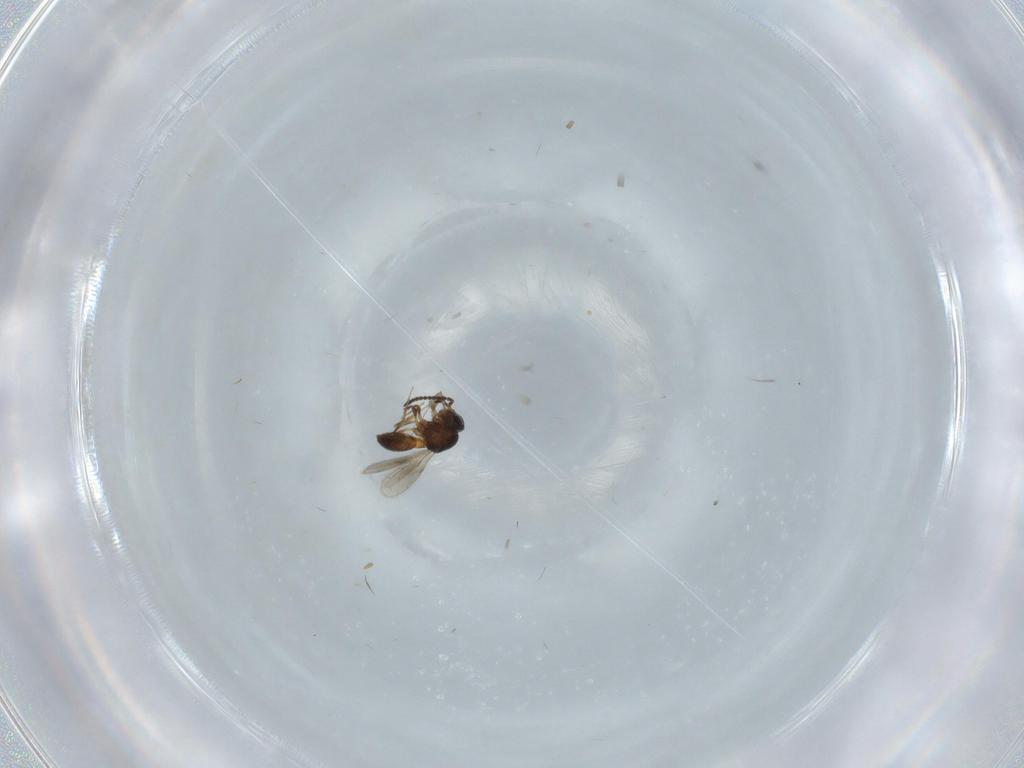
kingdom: Animalia
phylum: Arthropoda
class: Insecta
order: Hymenoptera
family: Scelionidae
